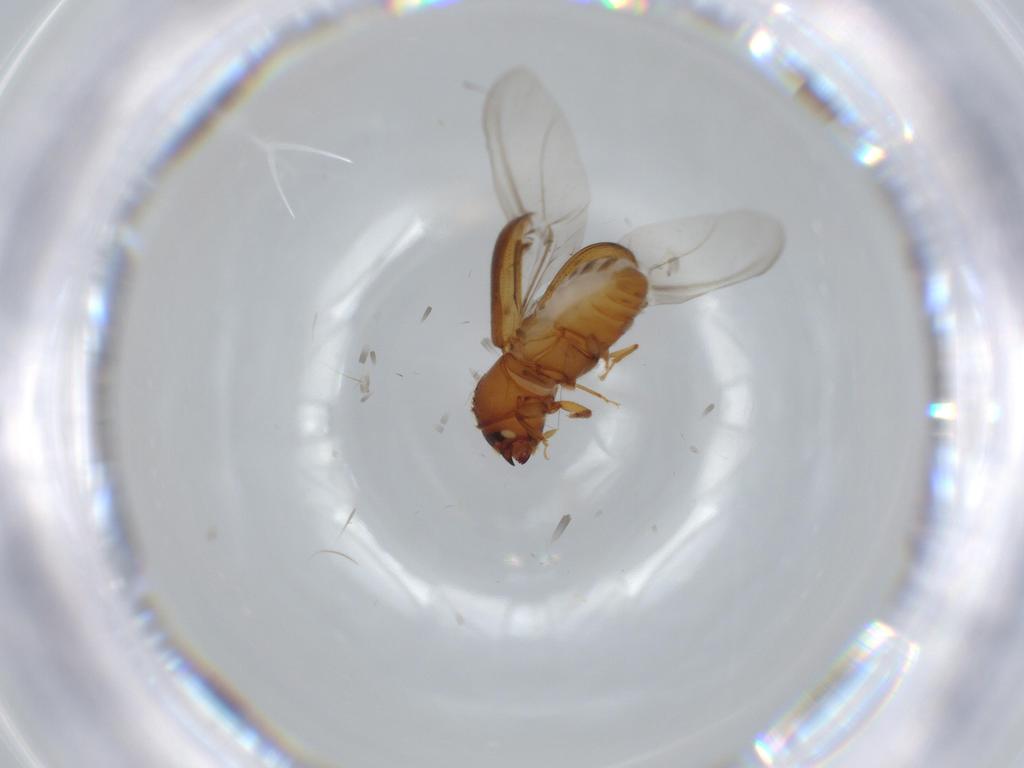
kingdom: Animalia
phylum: Arthropoda
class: Insecta
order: Coleoptera
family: Curculionidae
